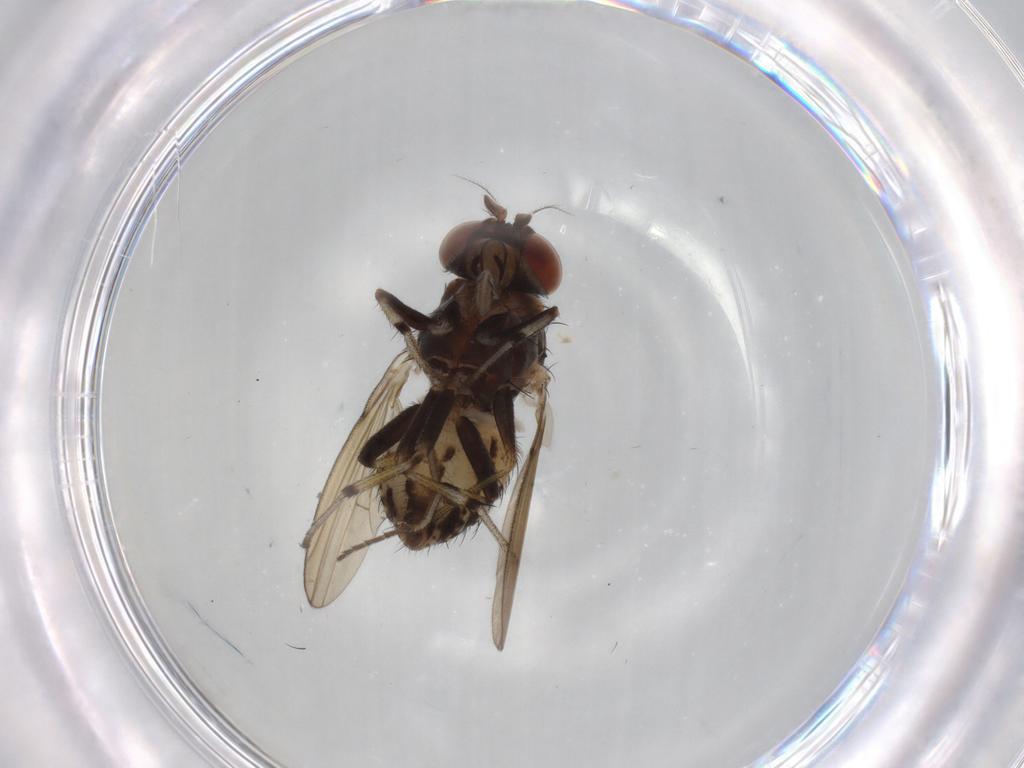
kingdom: Animalia
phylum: Arthropoda
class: Insecta
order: Diptera
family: Dolichopodidae
